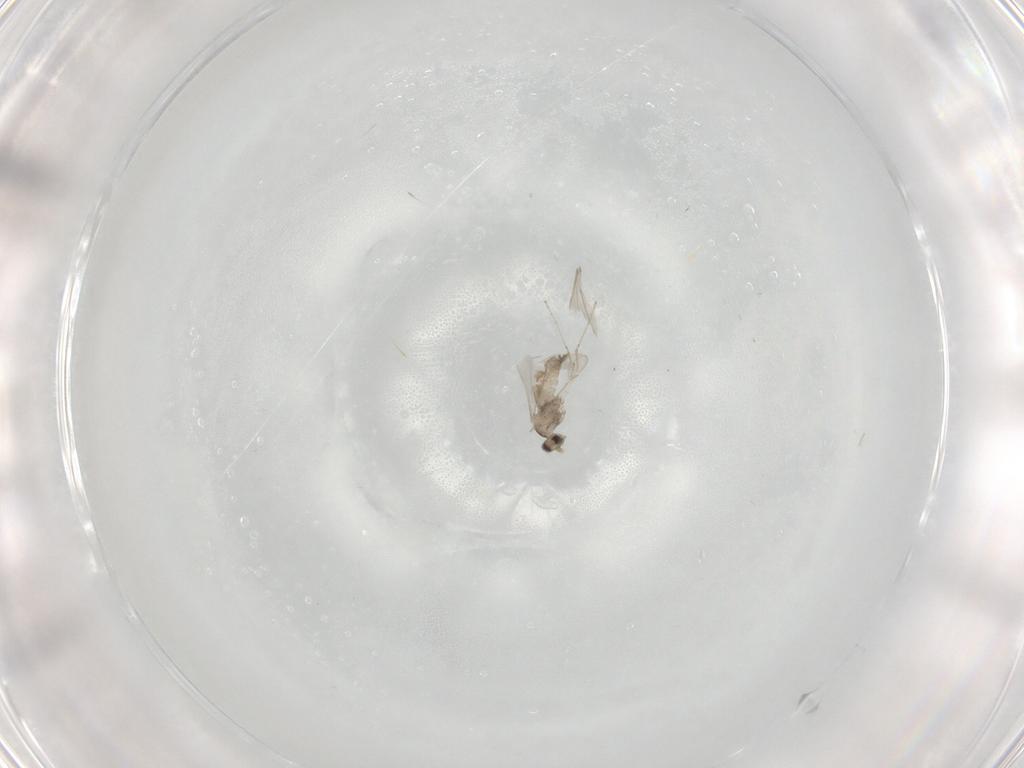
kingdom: Animalia
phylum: Arthropoda
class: Insecta
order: Diptera
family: Cecidomyiidae
